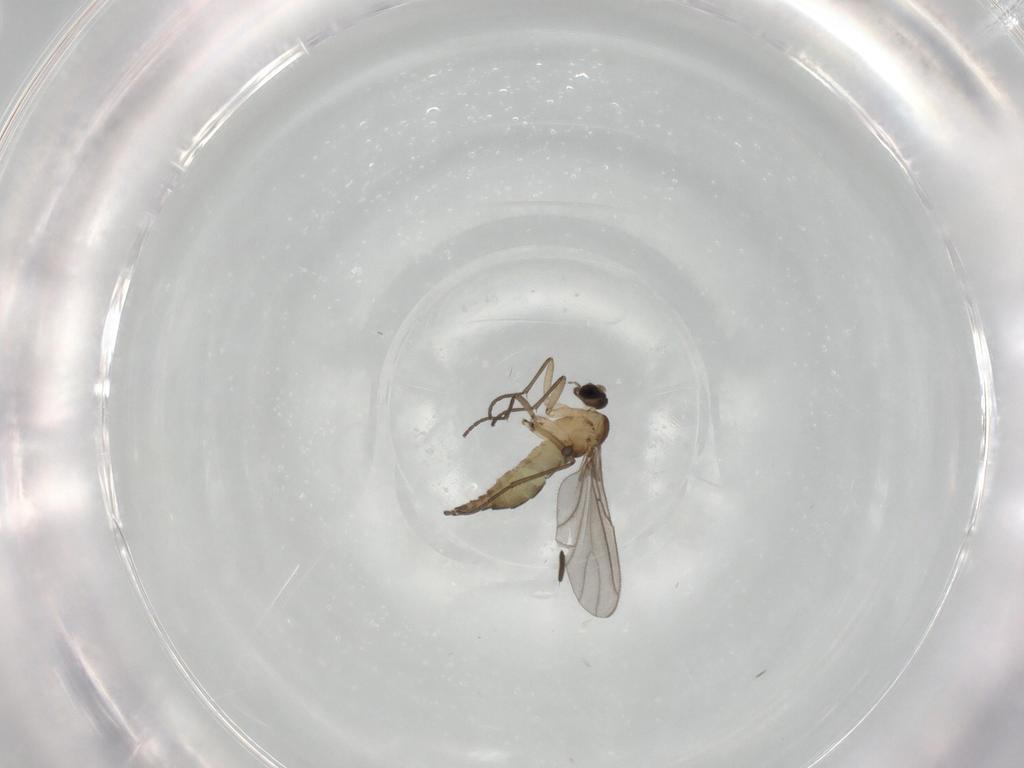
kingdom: Animalia
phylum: Arthropoda
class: Insecta
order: Diptera
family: Sciaridae
